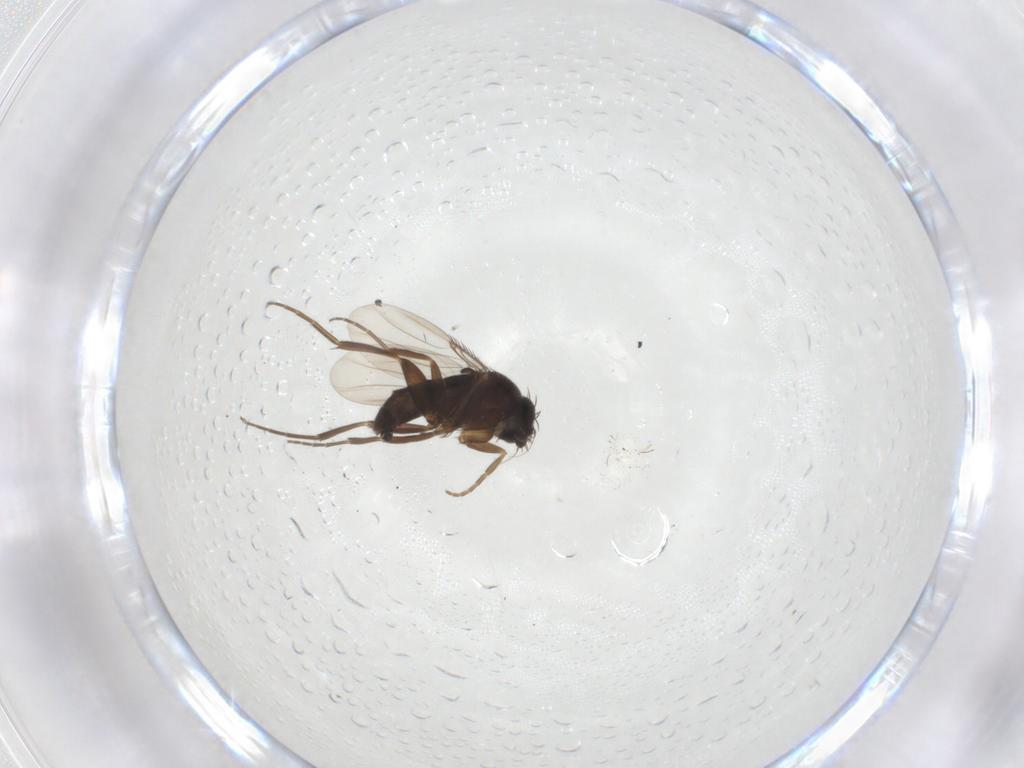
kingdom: Animalia
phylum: Arthropoda
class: Insecta
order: Diptera
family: Phoridae
